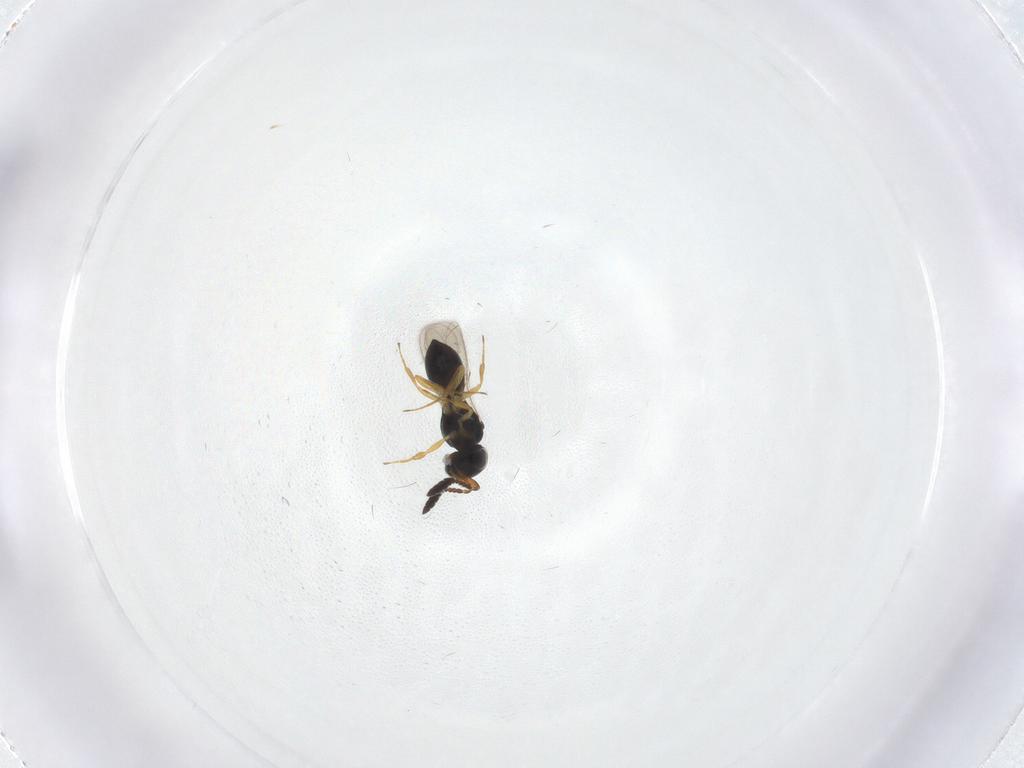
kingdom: Animalia
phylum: Arthropoda
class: Insecta
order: Hymenoptera
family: Scelionidae
